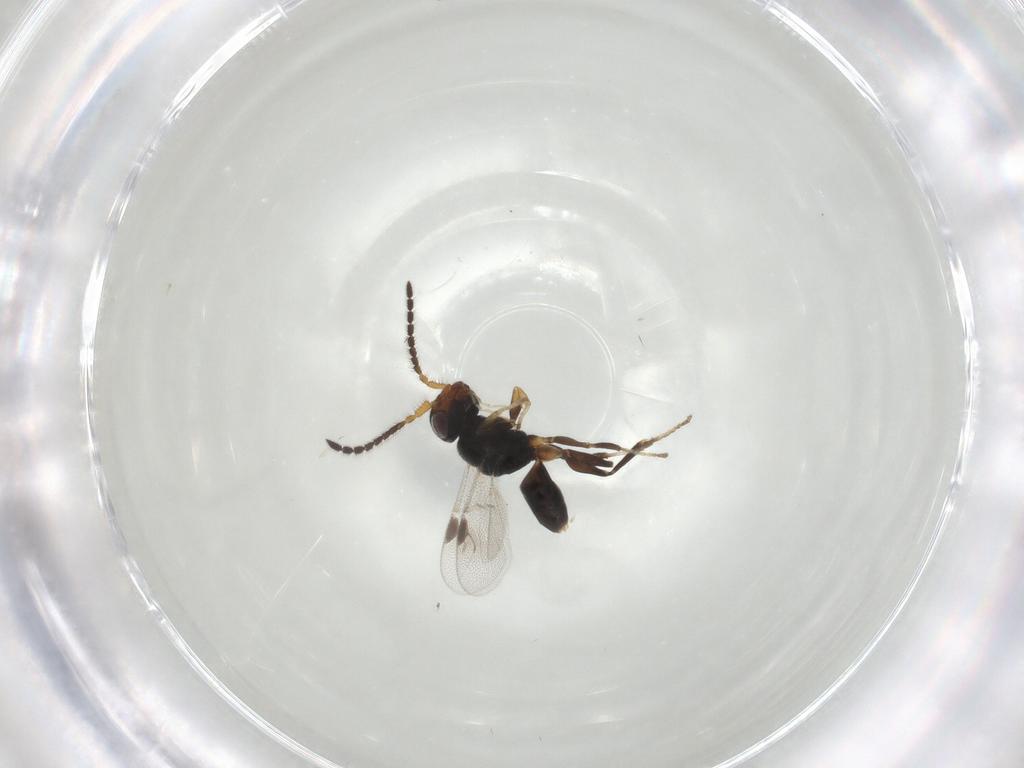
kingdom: Animalia
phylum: Arthropoda
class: Insecta
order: Hymenoptera
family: Dryinidae
